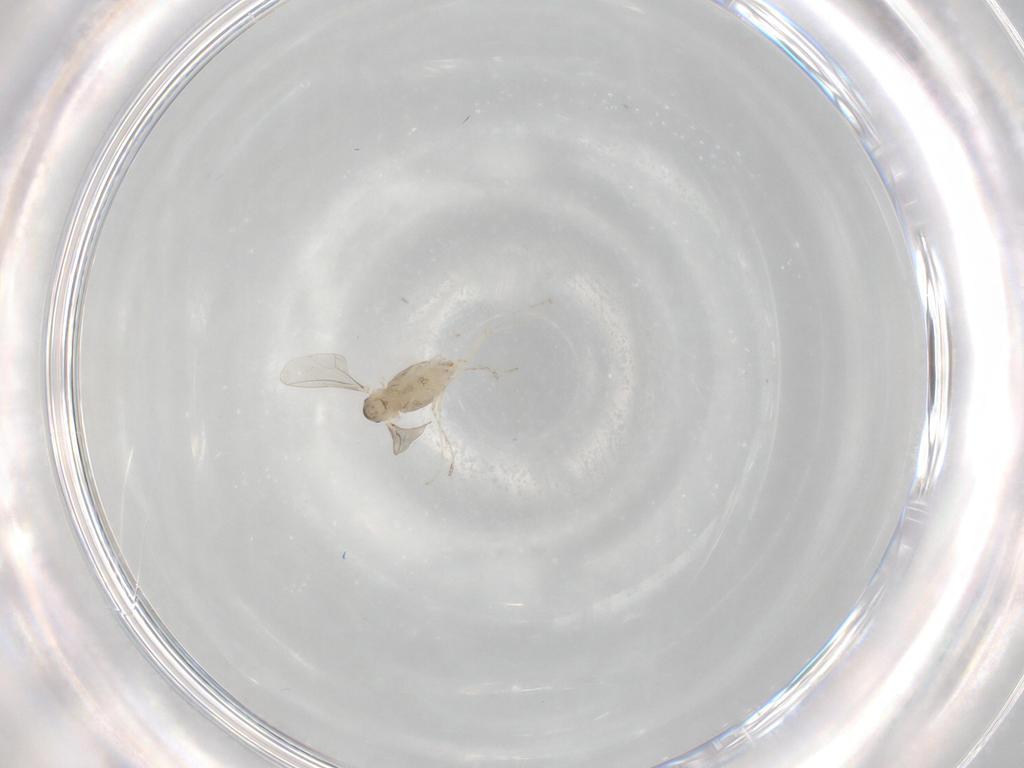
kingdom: Animalia
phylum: Arthropoda
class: Insecta
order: Diptera
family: Cecidomyiidae
